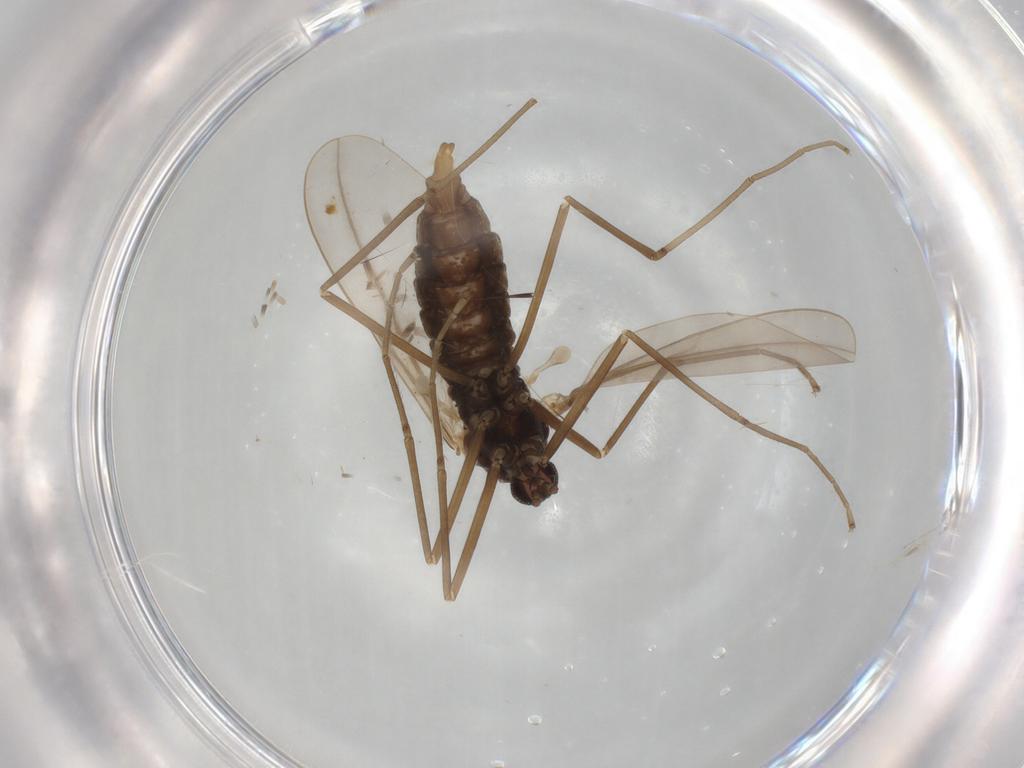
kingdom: Animalia
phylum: Arthropoda
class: Insecta
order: Diptera
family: Cecidomyiidae
